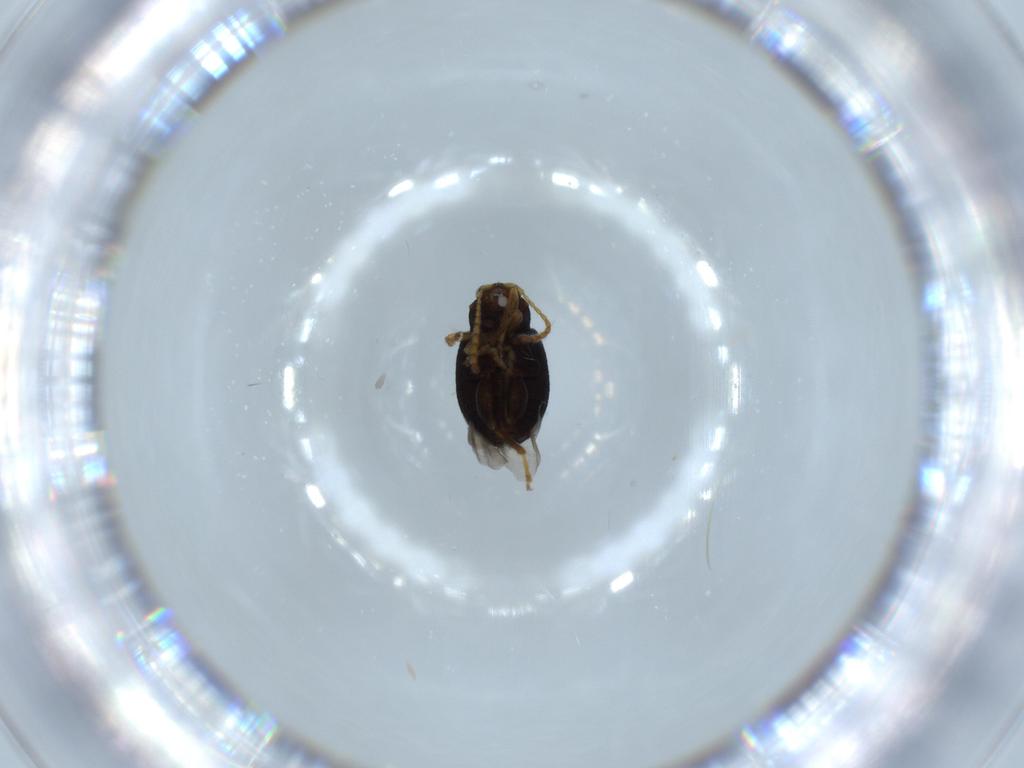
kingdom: Animalia
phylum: Arthropoda
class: Insecta
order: Coleoptera
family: Chrysomelidae
